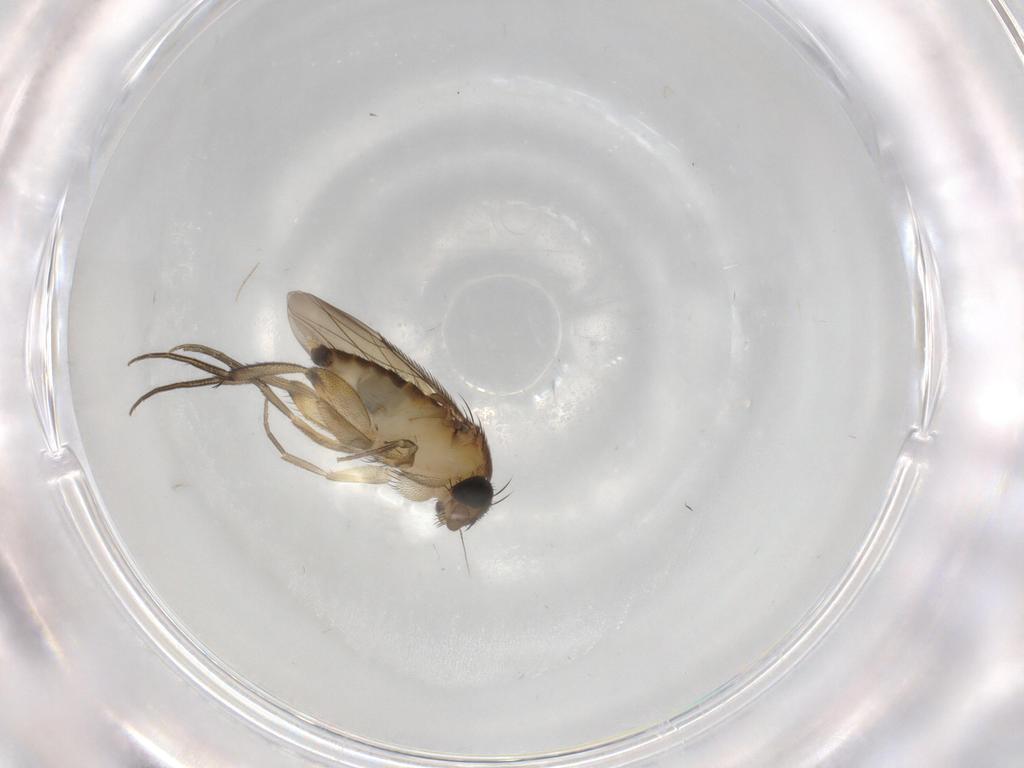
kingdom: Animalia
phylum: Arthropoda
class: Insecta
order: Diptera
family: Phoridae
